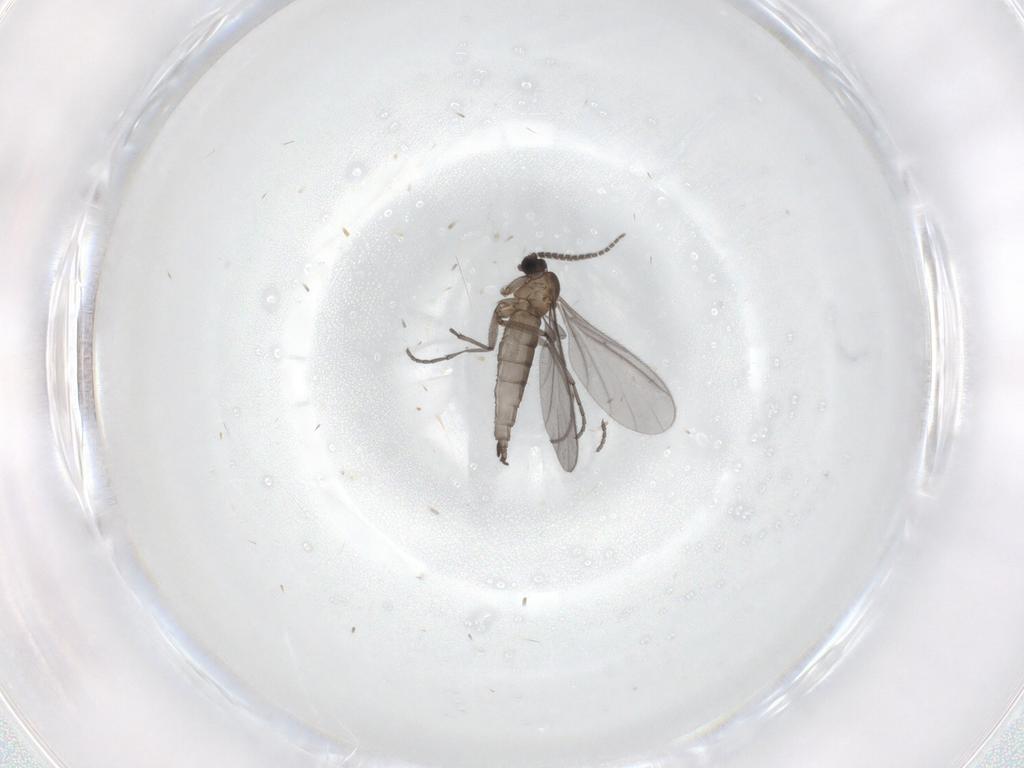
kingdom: Animalia
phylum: Arthropoda
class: Insecta
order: Diptera
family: Sciaridae
